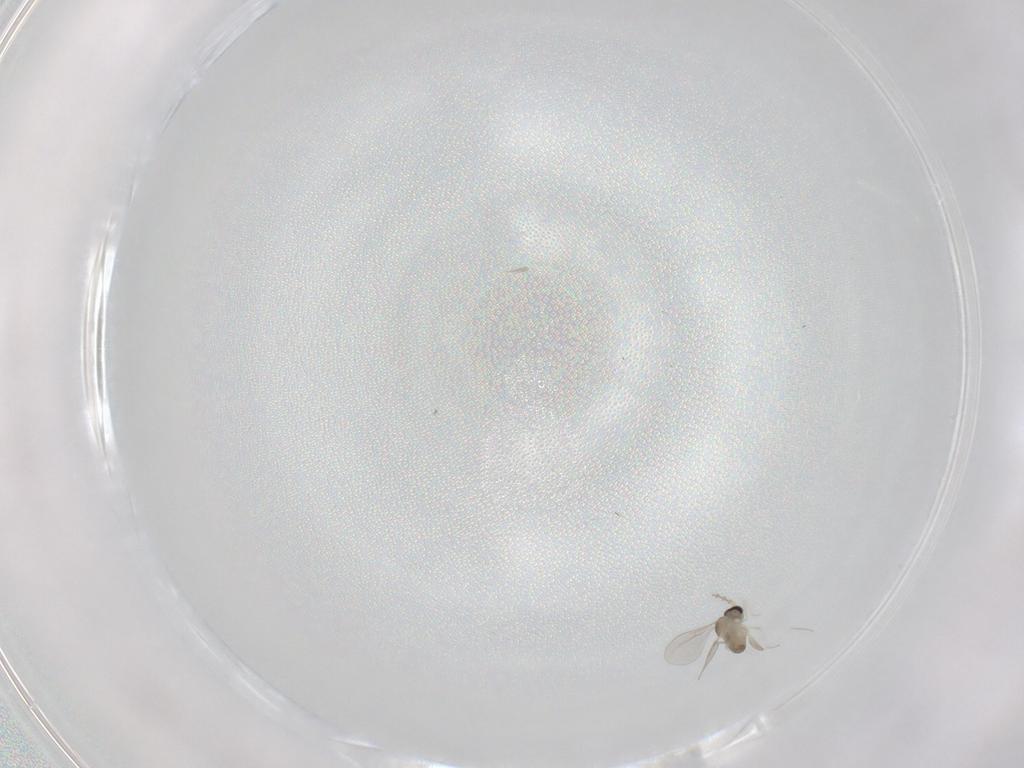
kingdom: Animalia
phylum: Arthropoda
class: Insecta
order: Diptera
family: Cecidomyiidae
